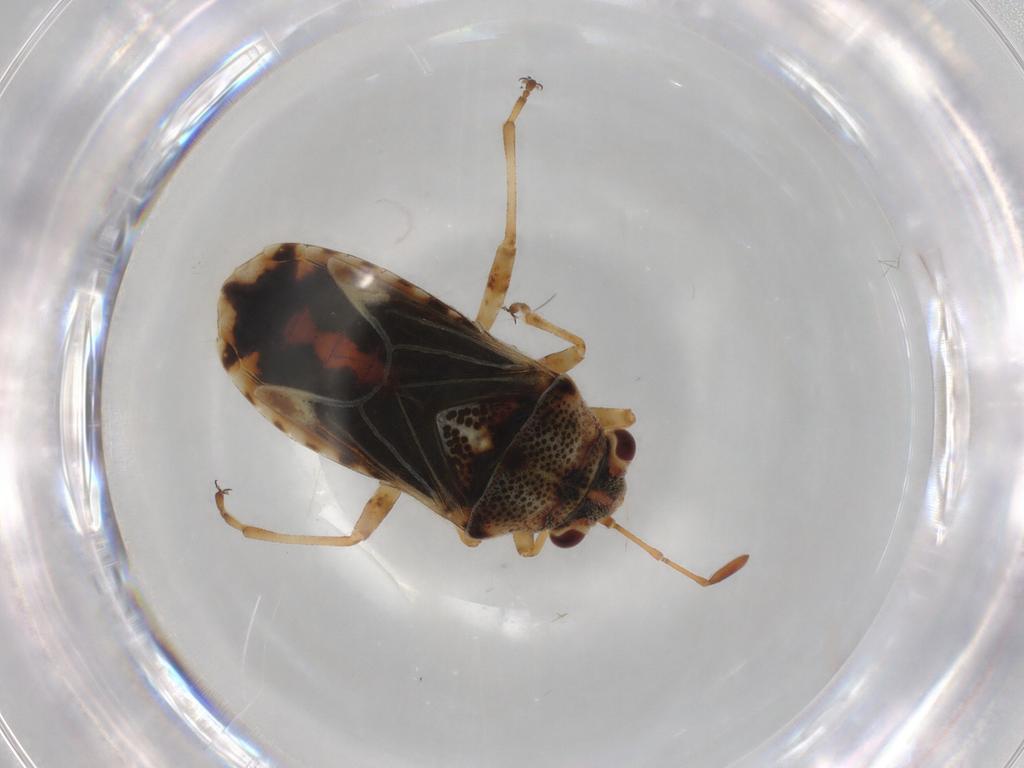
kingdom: Animalia
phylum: Arthropoda
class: Insecta
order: Hemiptera
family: Lygaeidae
